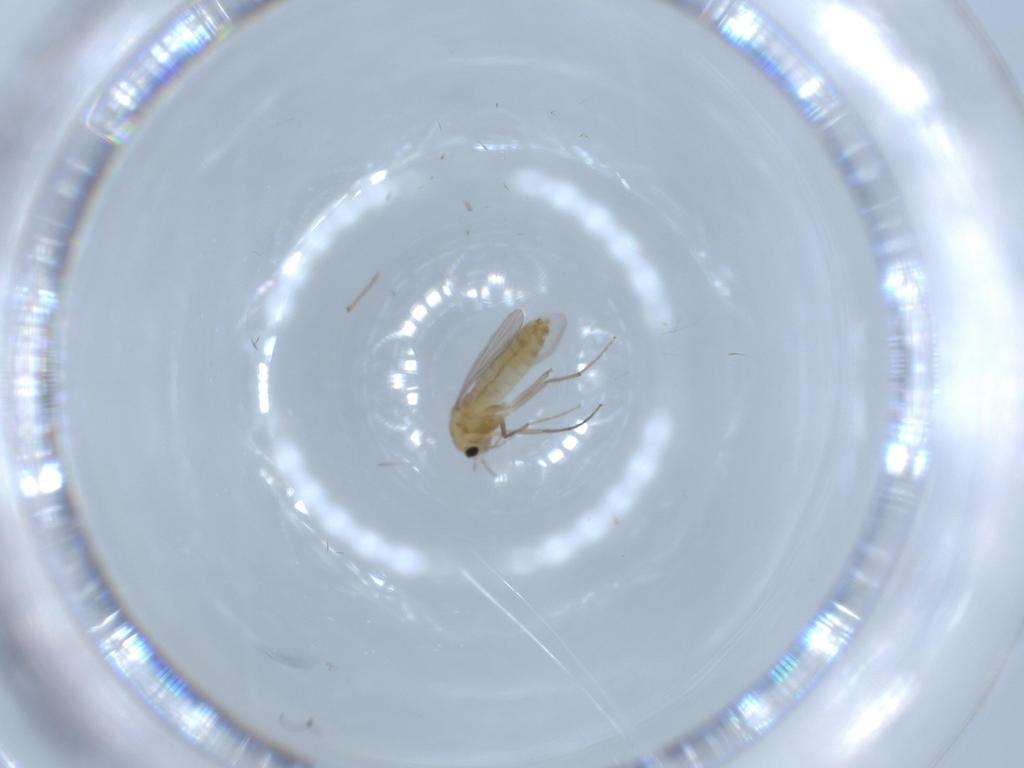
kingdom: Animalia
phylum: Arthropoda
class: Insecta
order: Diptera
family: Chironomidae
